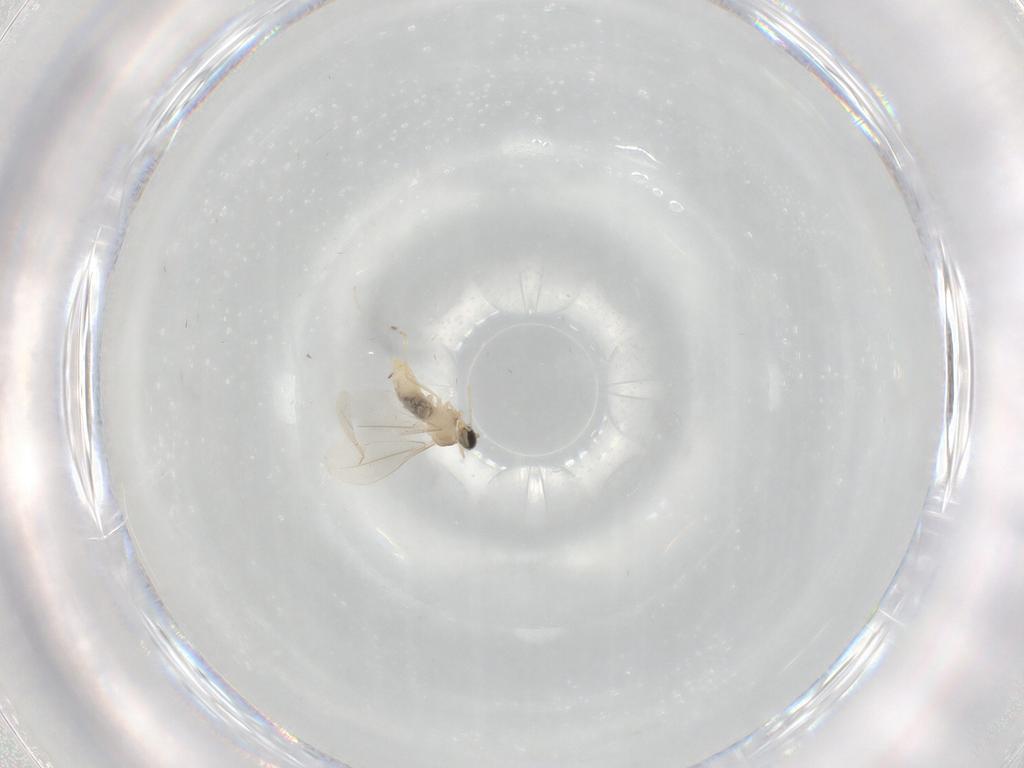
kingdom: Animalia
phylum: Arthropoda
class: Insecta
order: Diptera
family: Cecidomyiidae
